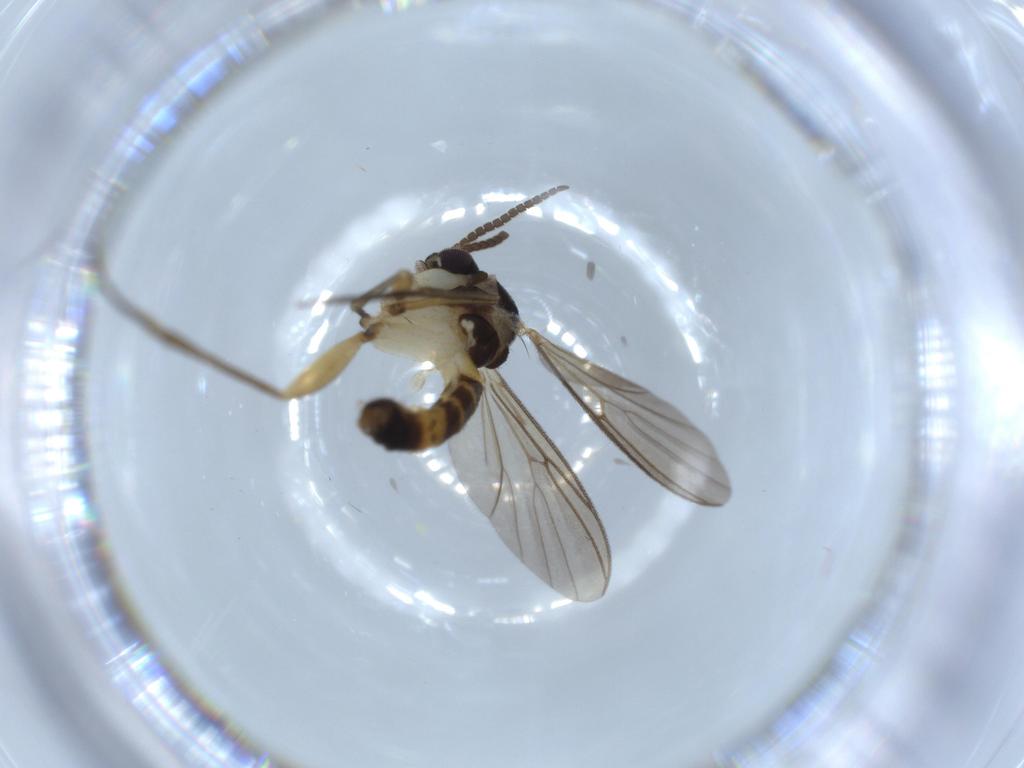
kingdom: Animalia
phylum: Arthropoda
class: Insecta
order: Diptera
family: Mycetophilidae
